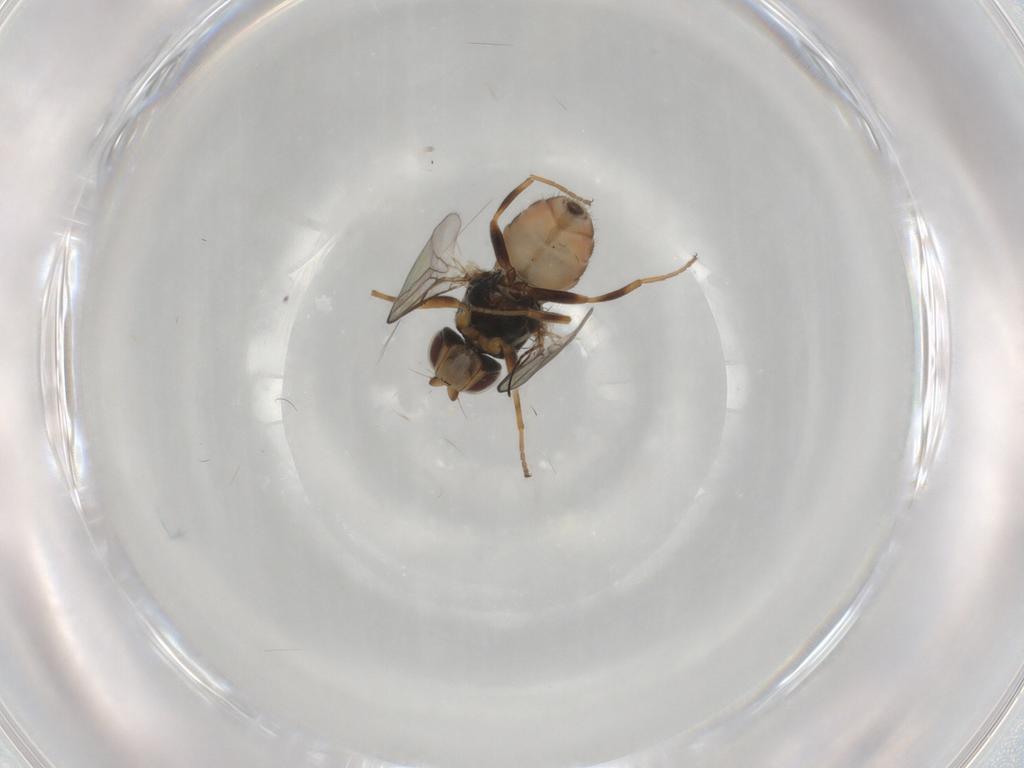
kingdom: Animalia
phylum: Arthropoda
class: Insecta
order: Diptera
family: Chloropidae
